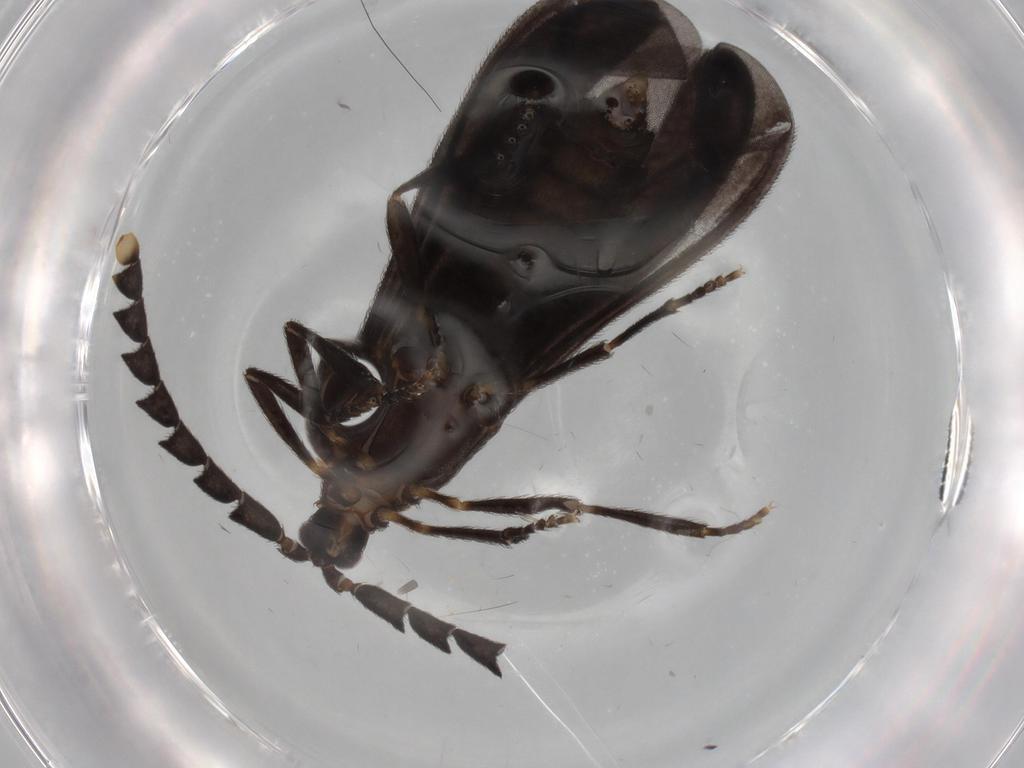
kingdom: Animalia
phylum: Arthropoda
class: Insecta
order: Coleoptera
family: Lycidae
